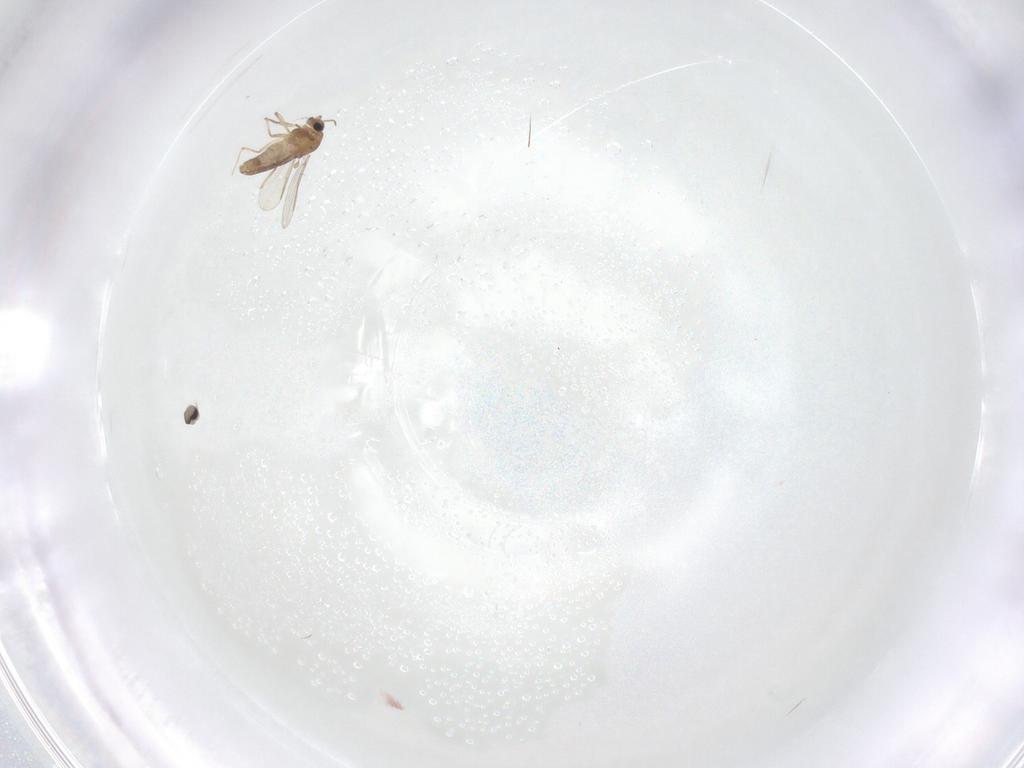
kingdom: Animalia
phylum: Arthropoda
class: Insecta
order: Diptera
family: Chironomidae
